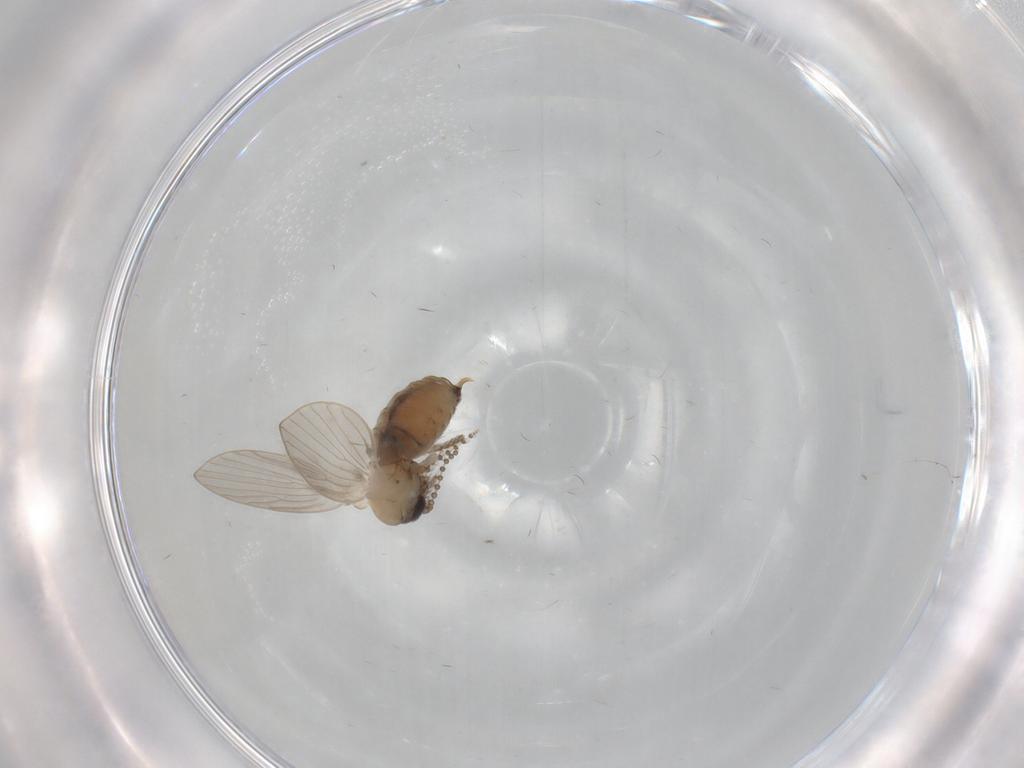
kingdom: Animalia
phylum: Arthropoda
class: Insecta
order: Diptera
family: Psychodidae
